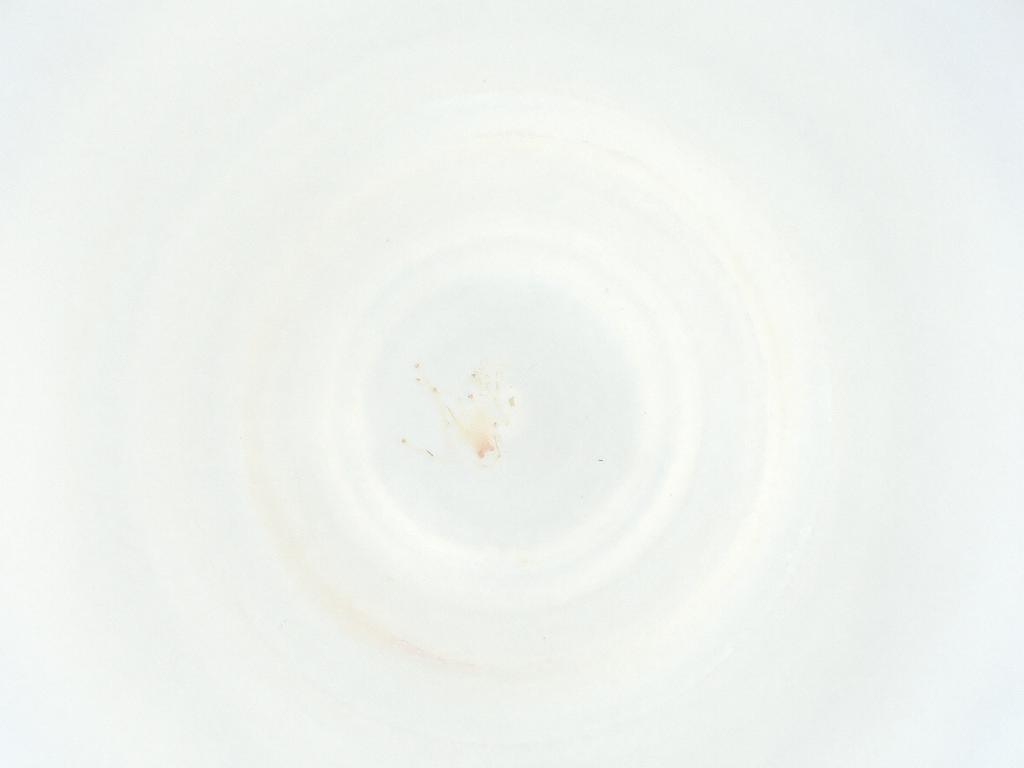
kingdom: Animalia
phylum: Arthropoda
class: Insecta
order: Hemiptera
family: Cicadellidae
